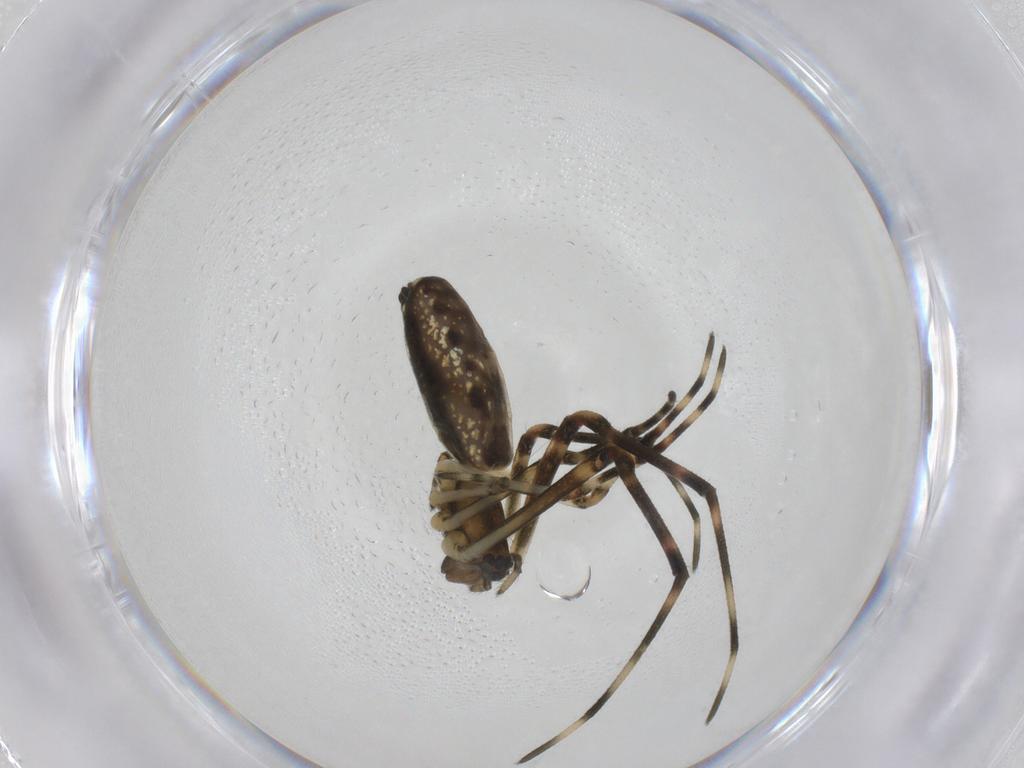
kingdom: Animalia
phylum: Arthropoda
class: Arachnida
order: Araneae
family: Tetragnathidae
